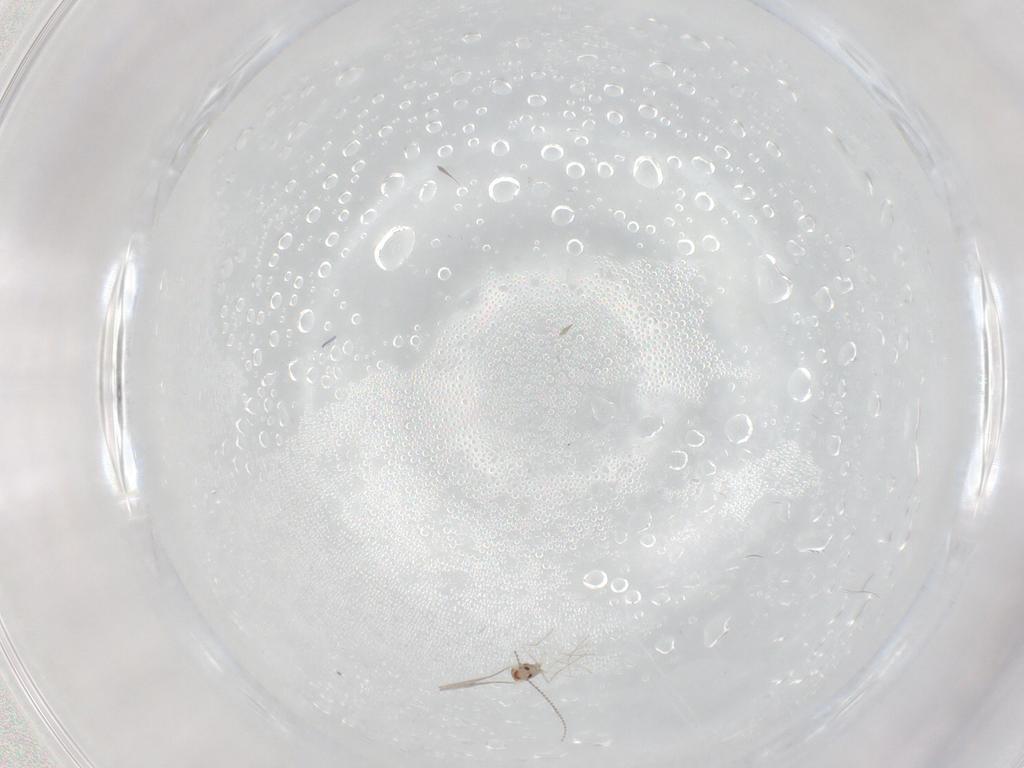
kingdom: Animalia
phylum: Arthropoda
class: Insecta
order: Diptera
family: Cecidomyiidae
